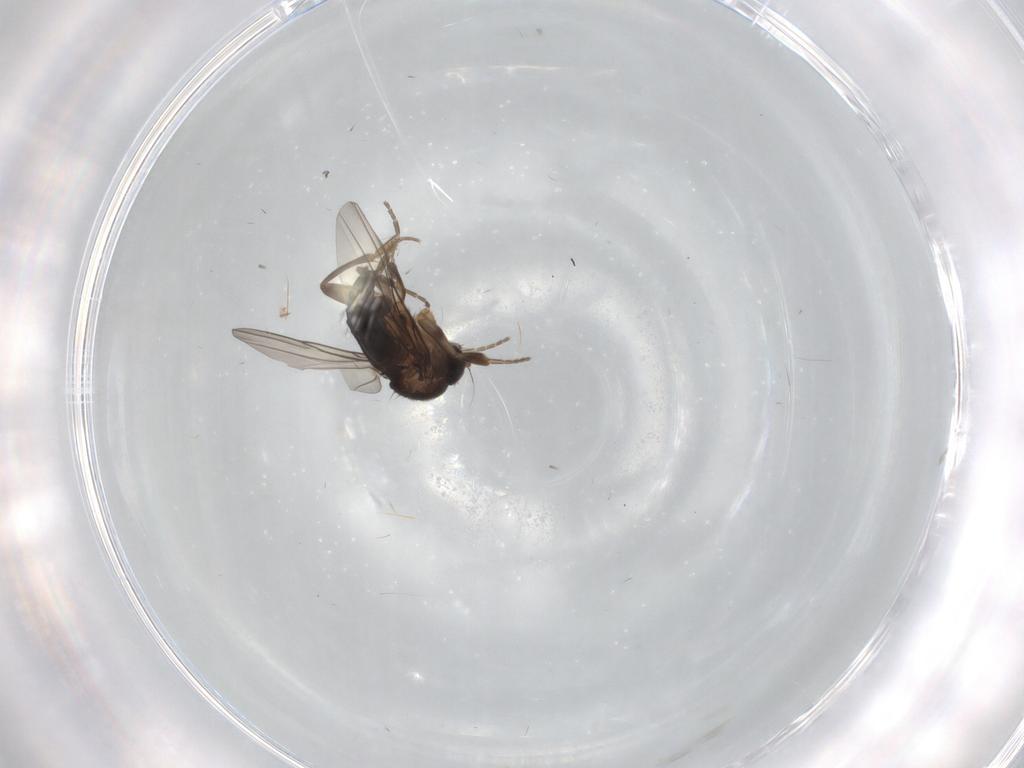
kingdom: Animalia
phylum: Arthropoda
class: Insecta
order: Diptera
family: Phoridae
